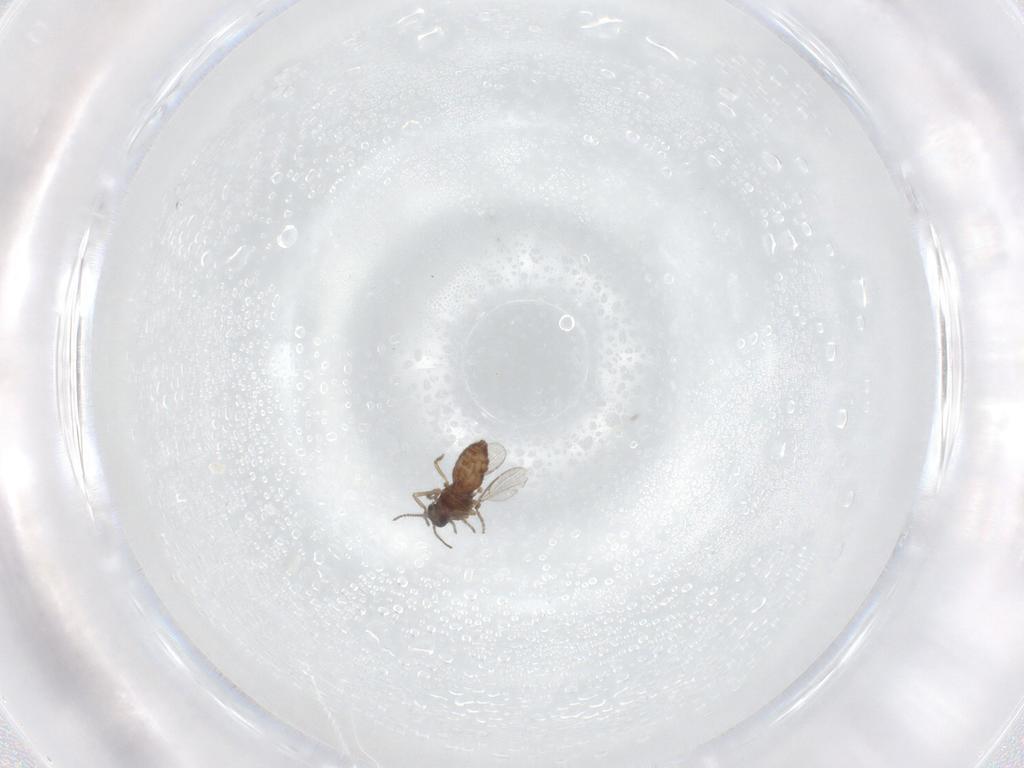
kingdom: Animalia
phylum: Arthropoda
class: Insecta
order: Diptera
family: Ceratopogonidae
